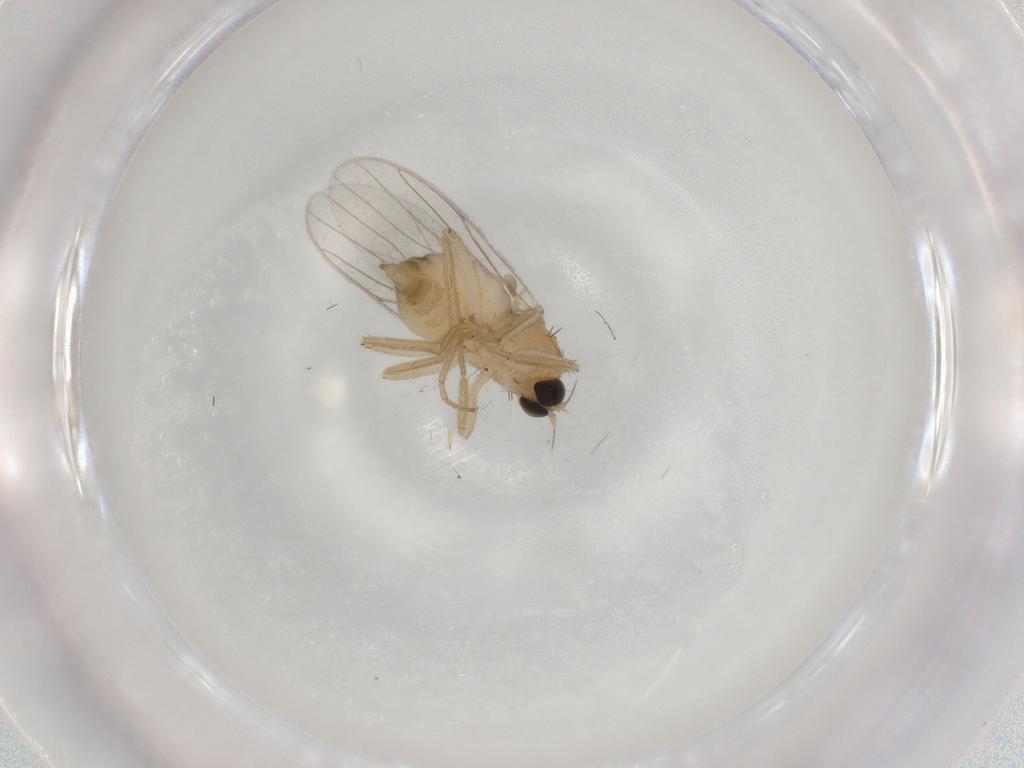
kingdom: Animalia
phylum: Arthropoda
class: Insecta
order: Diptera
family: Hybotidae
